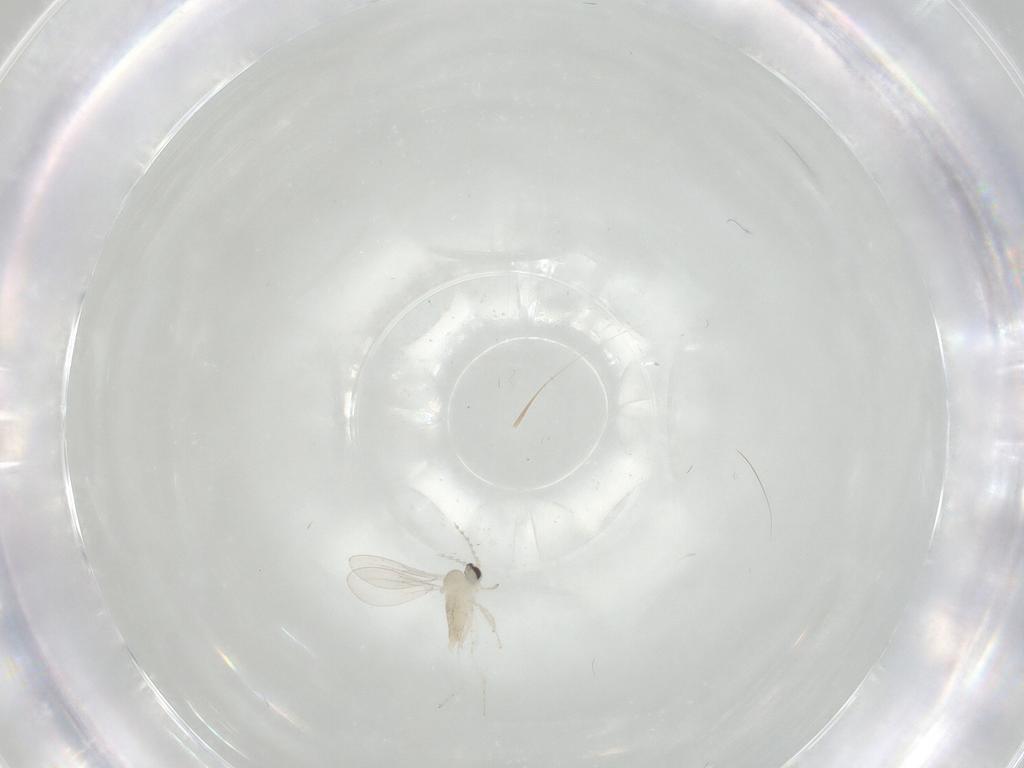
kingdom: Animalia
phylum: Arthropoda
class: Insecta
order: Diptera
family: Cecidomyiidae
